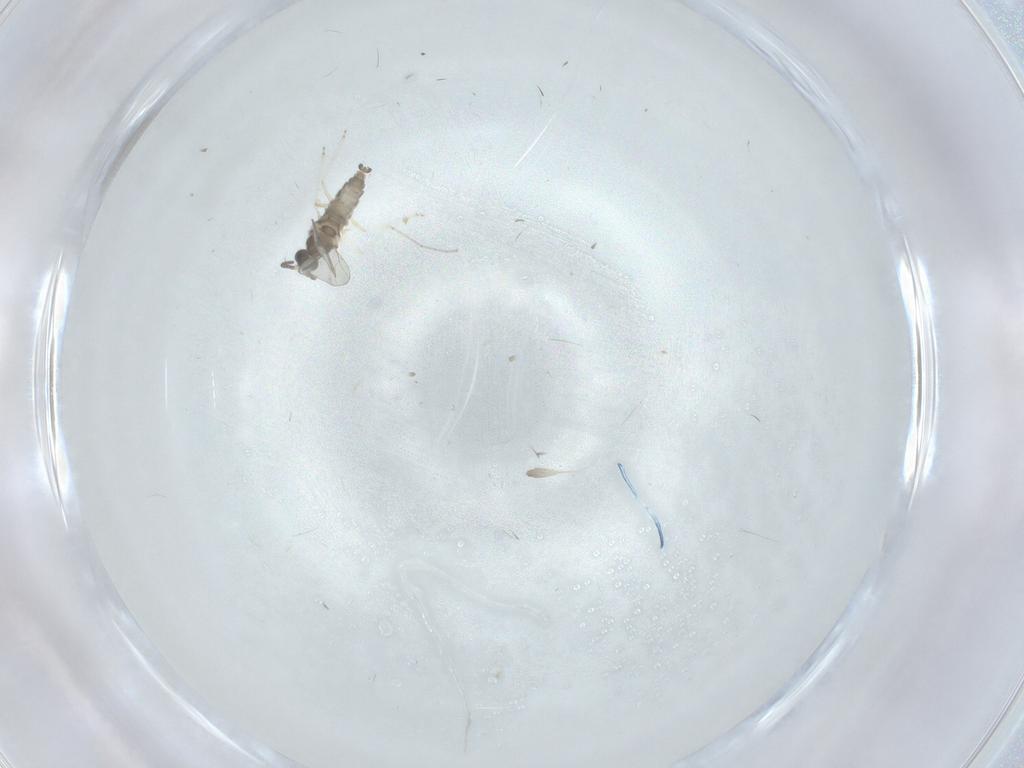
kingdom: Animalia
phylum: Arthropoda
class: Insecta
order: Diptera
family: Cecidomyiidae
